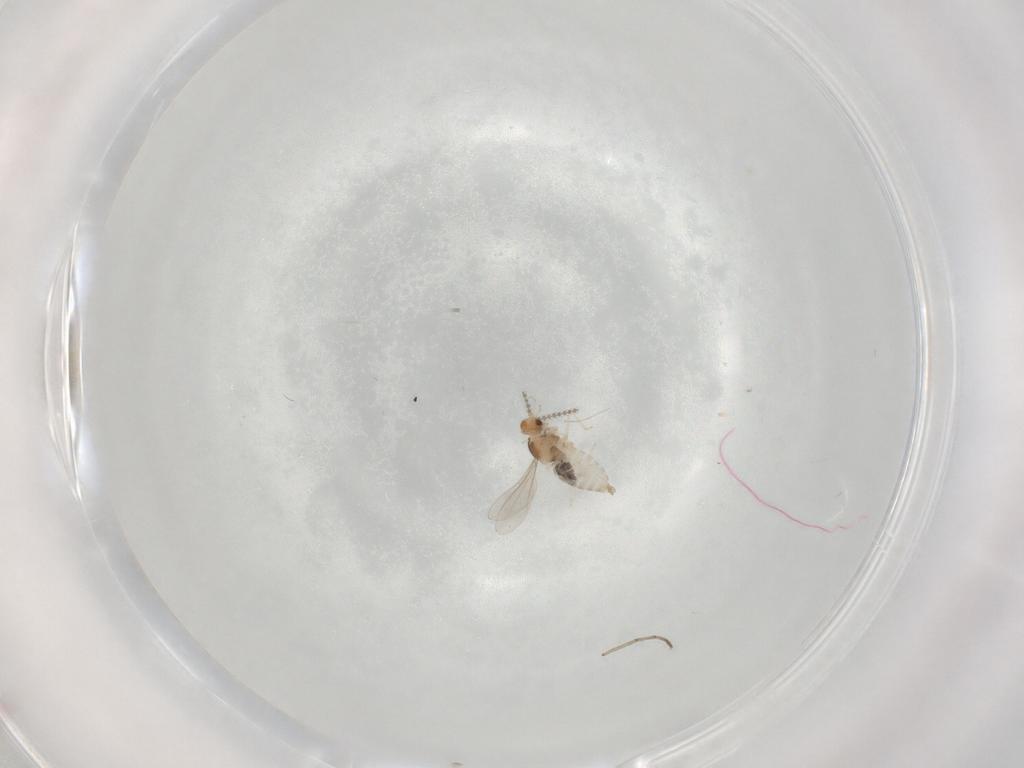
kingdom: Animalia
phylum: Arthropoda
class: Insecta
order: Diptera
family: Cecidomyiidae
